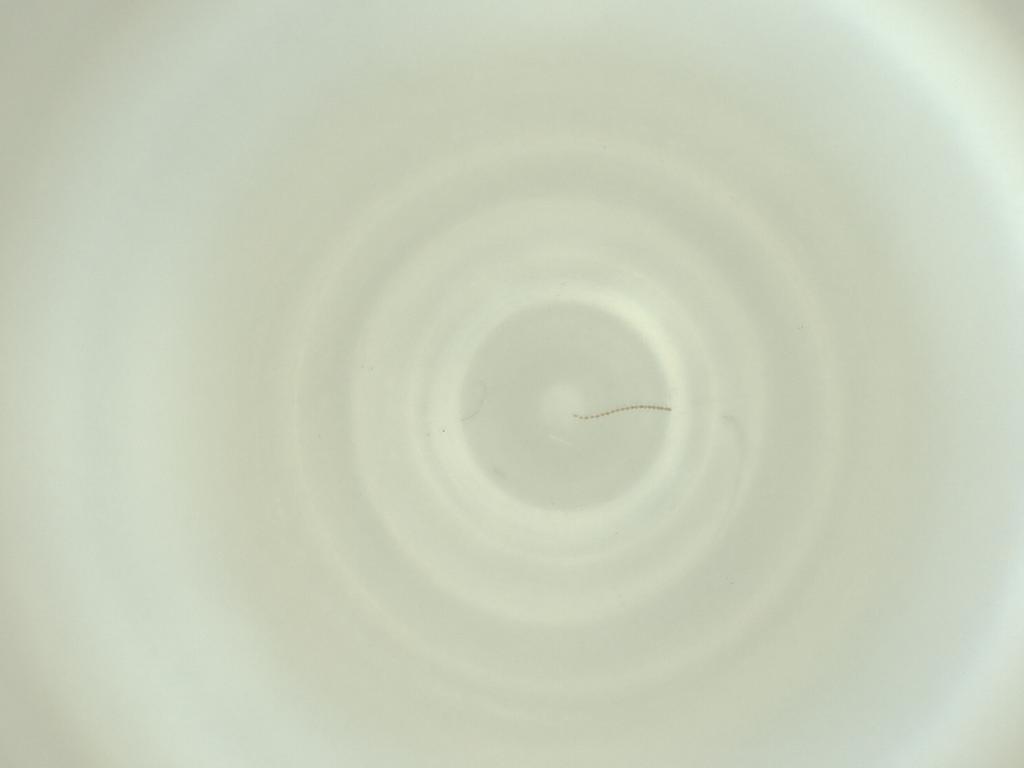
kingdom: Animalia
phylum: Arthropoda
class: Insecta
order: Diptera
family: Cecidomyiidae
